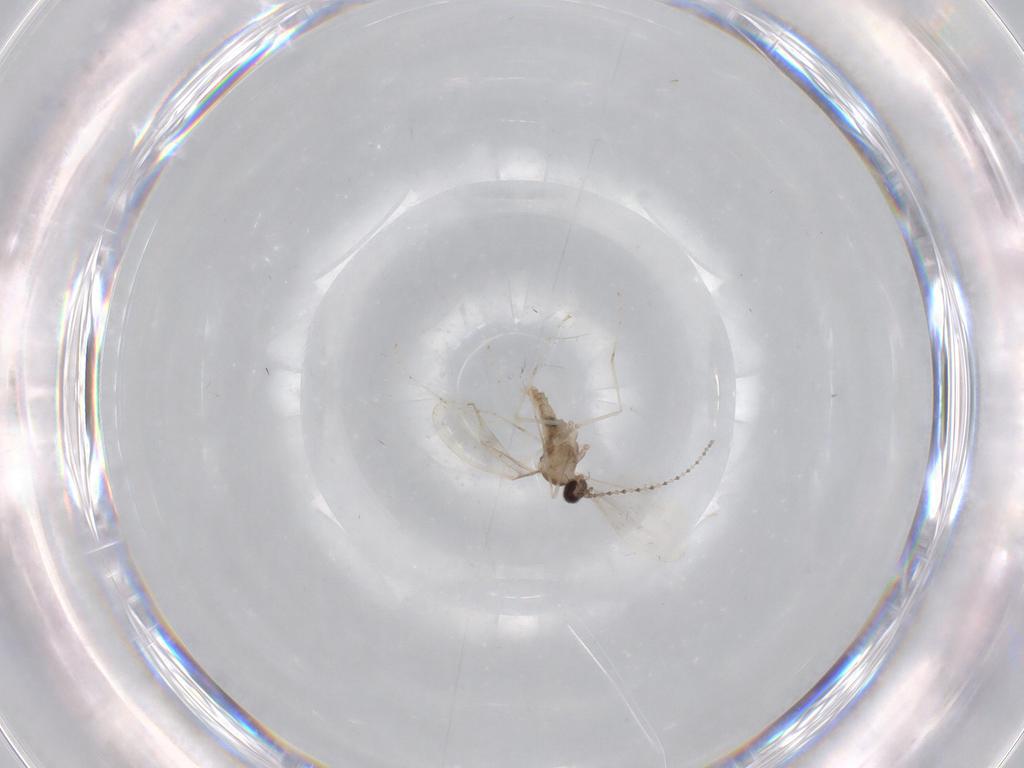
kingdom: Animalia
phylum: Arthropoda
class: Insecta
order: Diptera
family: Cecidomyiidae
